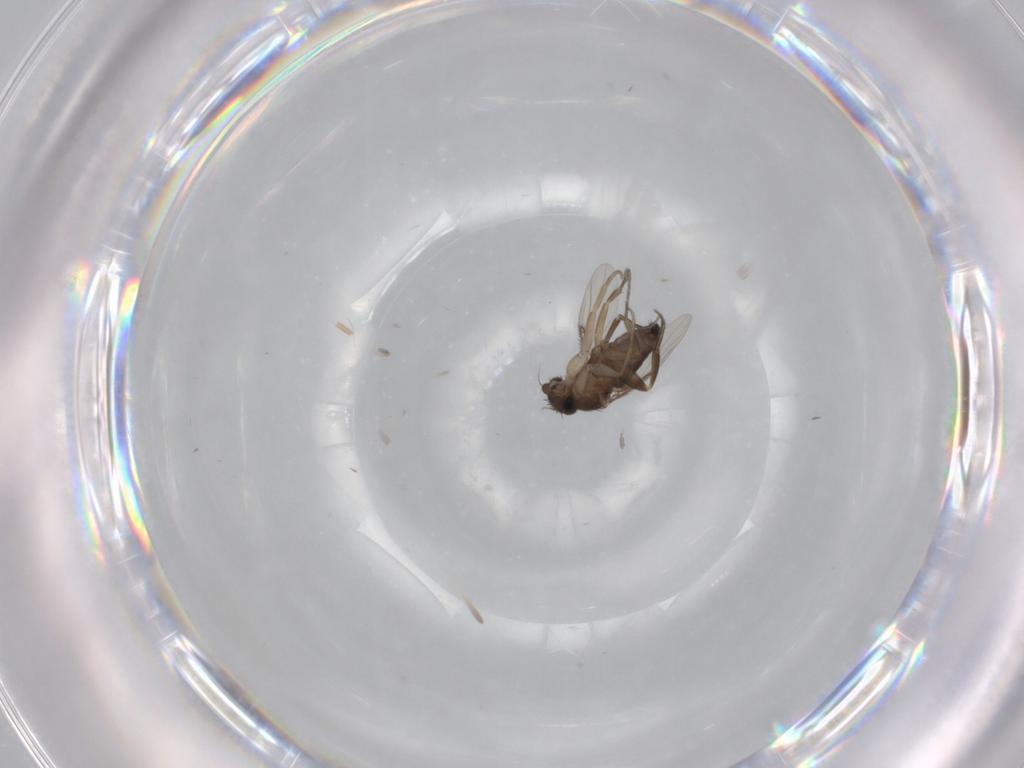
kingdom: Animalia
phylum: Arthropoda
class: Insecta
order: Diptera
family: Phoridae
